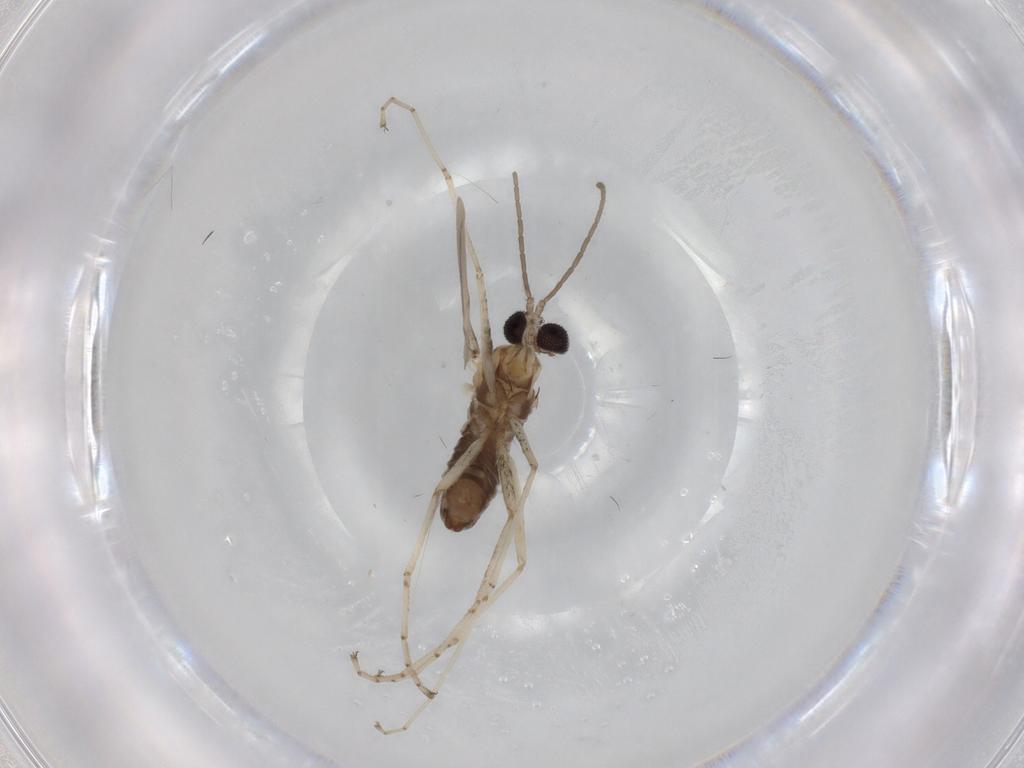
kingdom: Animalia
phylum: Arthropoda
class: Insecta
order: Diptera
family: Cecidomyiidae
